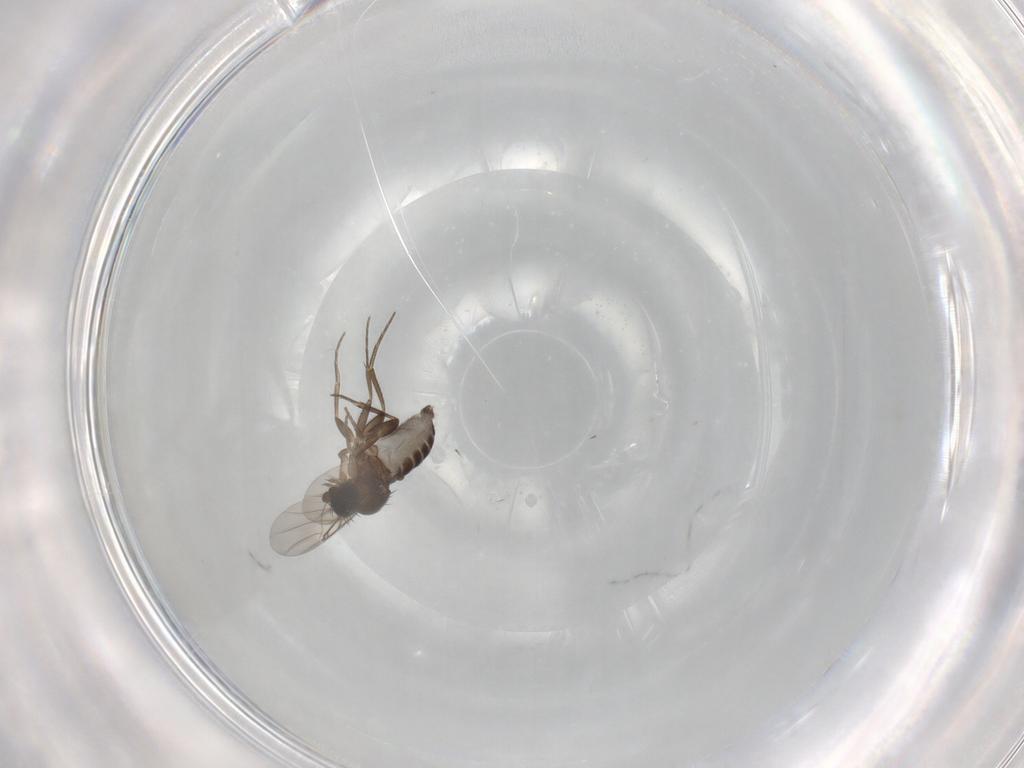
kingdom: Animalia
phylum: Arthropoda
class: Insecta
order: Diptera
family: Phoridae
